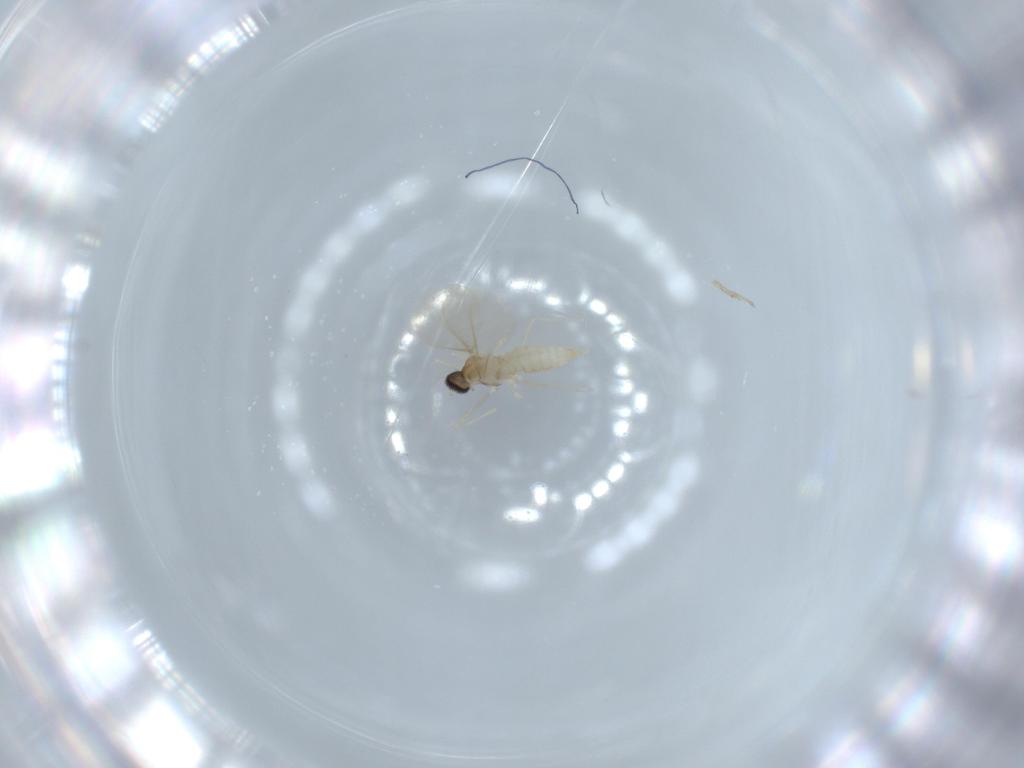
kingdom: Animalia
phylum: Arthropoda
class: Insecta
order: Diptera
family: Cecidomyiidae
